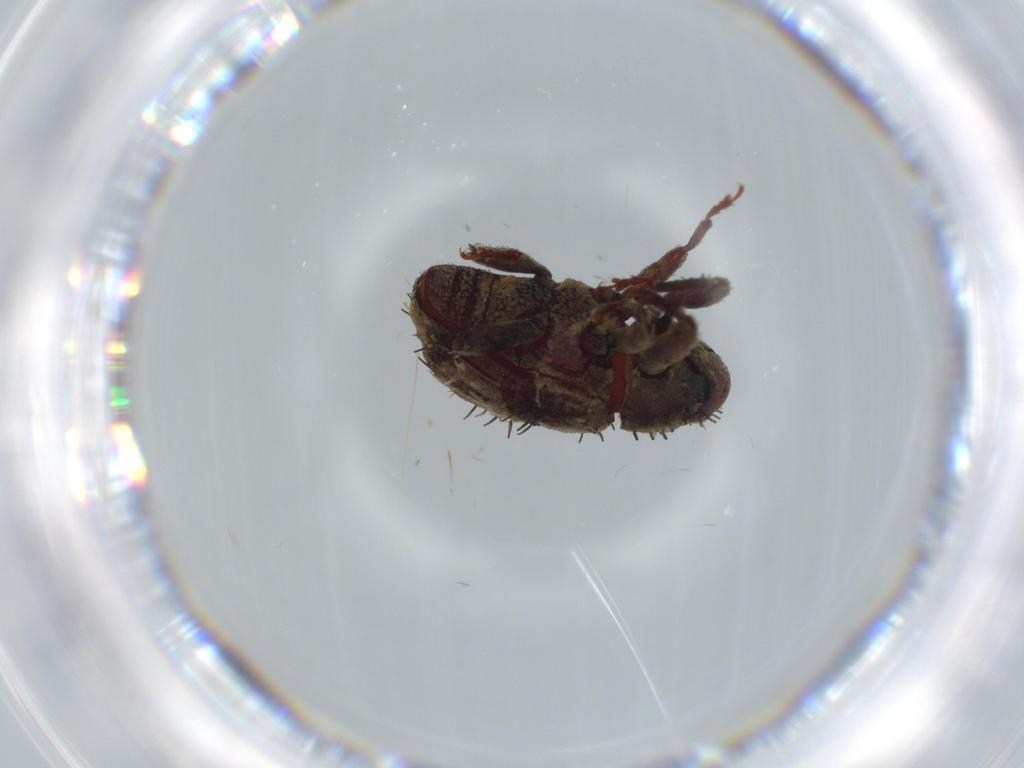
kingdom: Animalia
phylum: Arthropoda
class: Insecta
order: Coleoptera
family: Curculionidae
